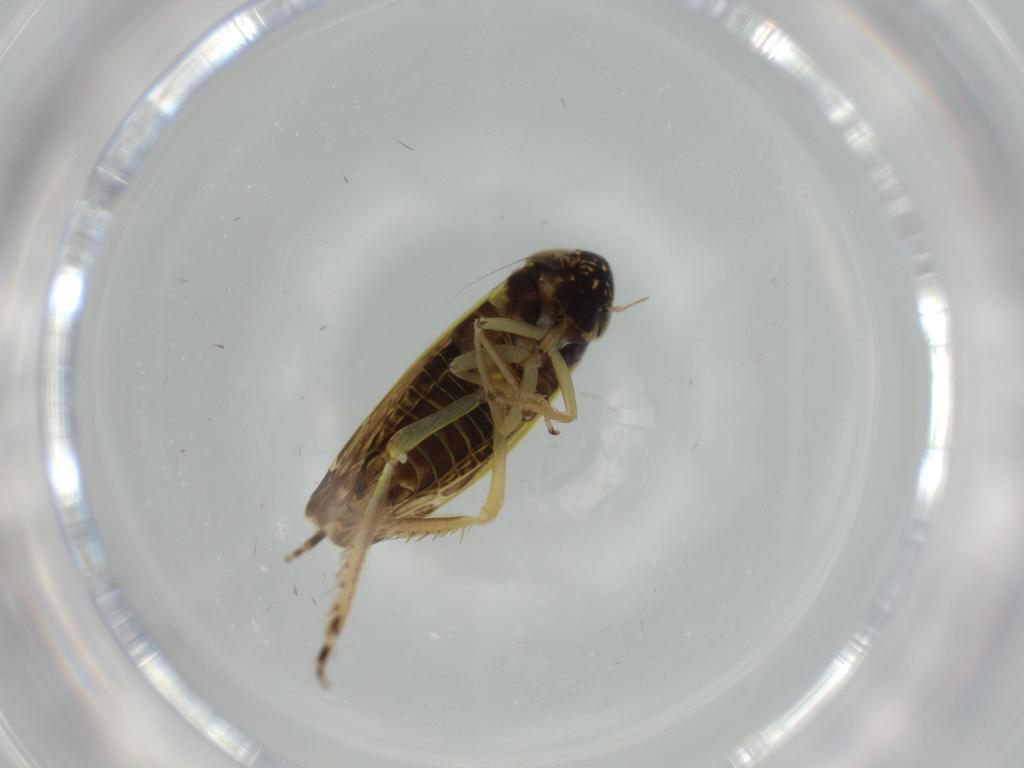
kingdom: Animalia
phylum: Arthropoda
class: Insecta
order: Hemiptera
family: Cicadellidae
